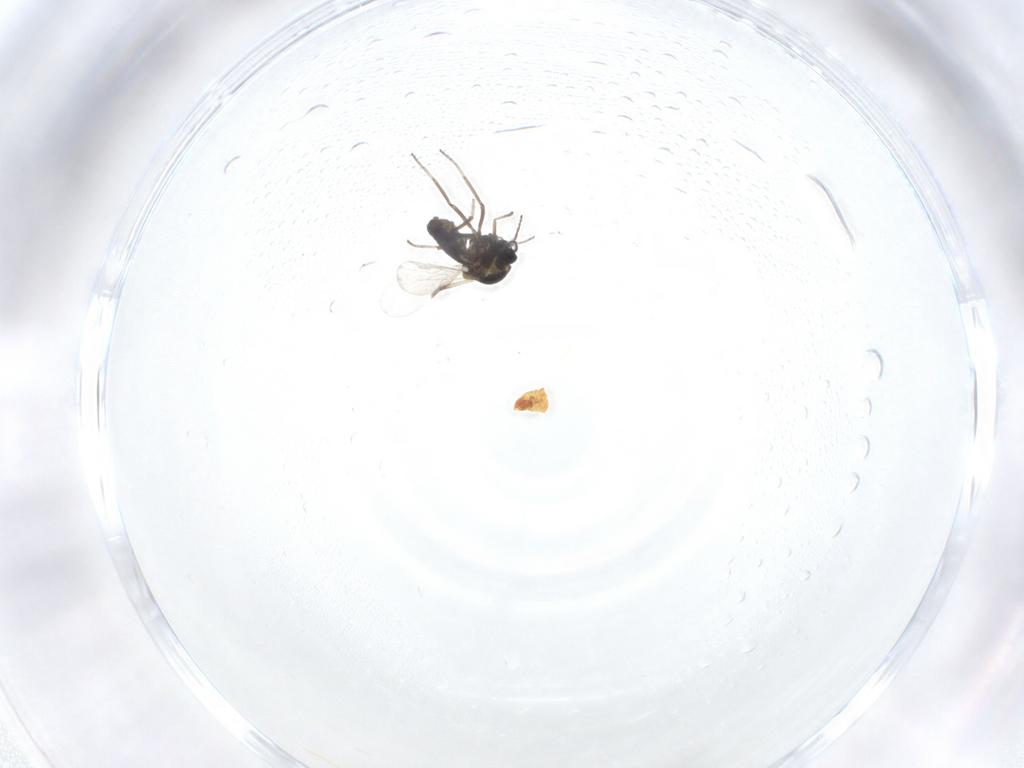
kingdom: Animalia
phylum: Arthropoda
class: Insecta
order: Diptera
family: Ceratopogonidae
